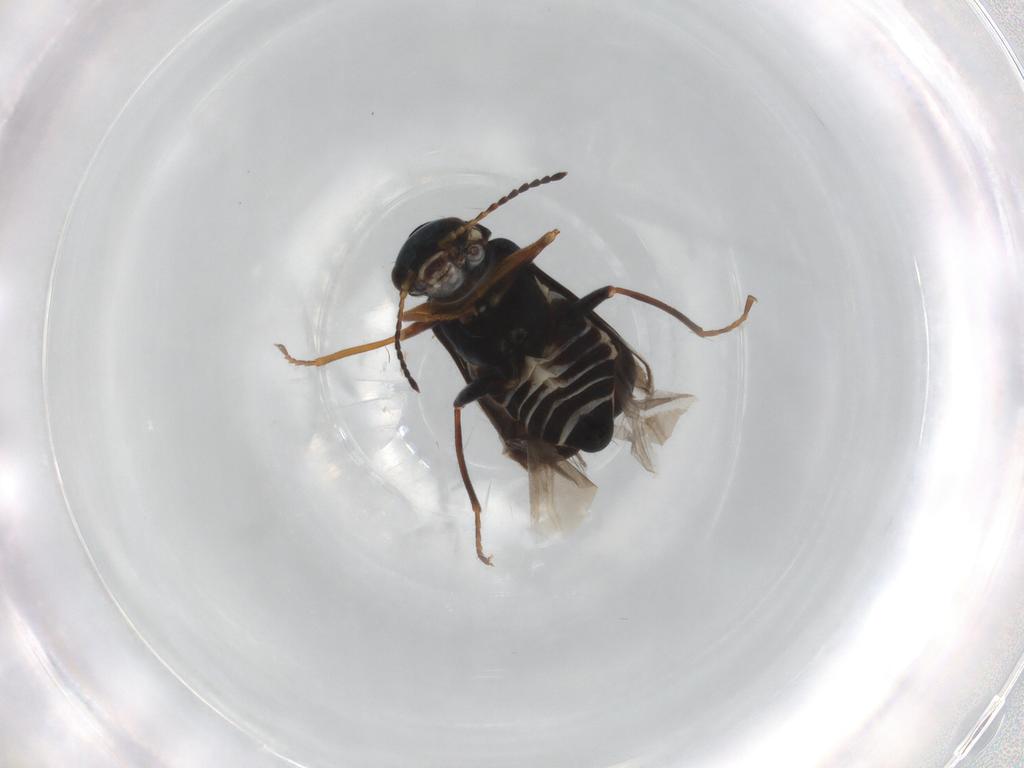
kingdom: Animalia
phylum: Arthropoda
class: Insecta
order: Coleoptera
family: Melyridae
